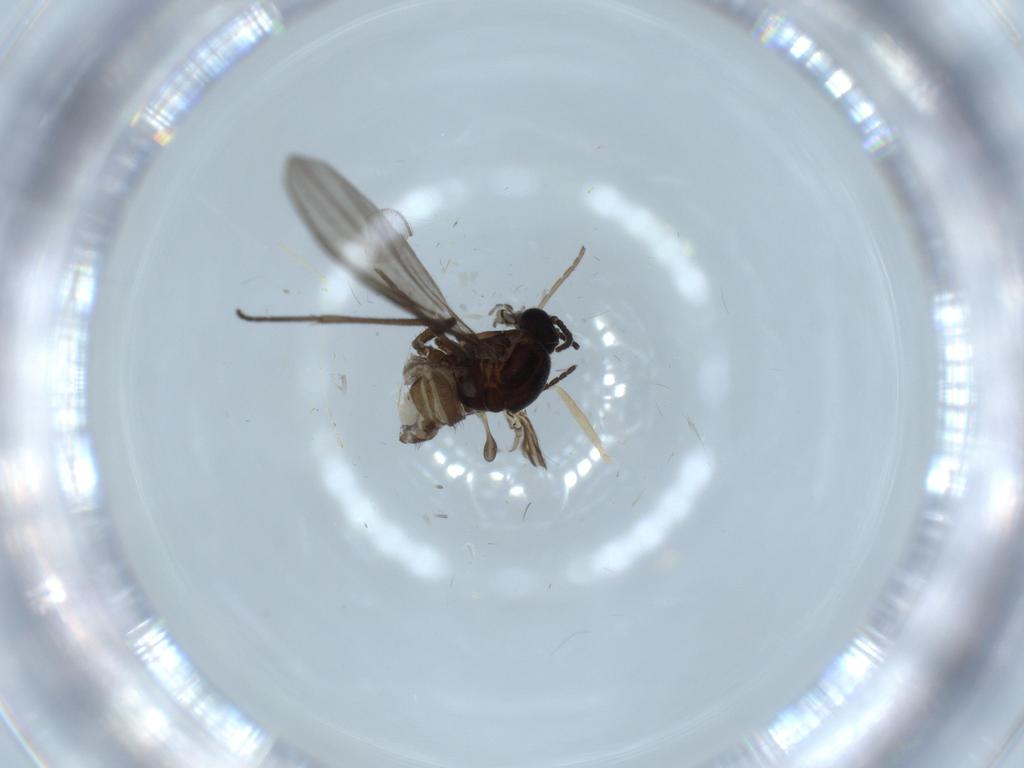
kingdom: Animalia
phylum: Arthropoda
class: Insecta
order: Diptera
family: Sciaridae
